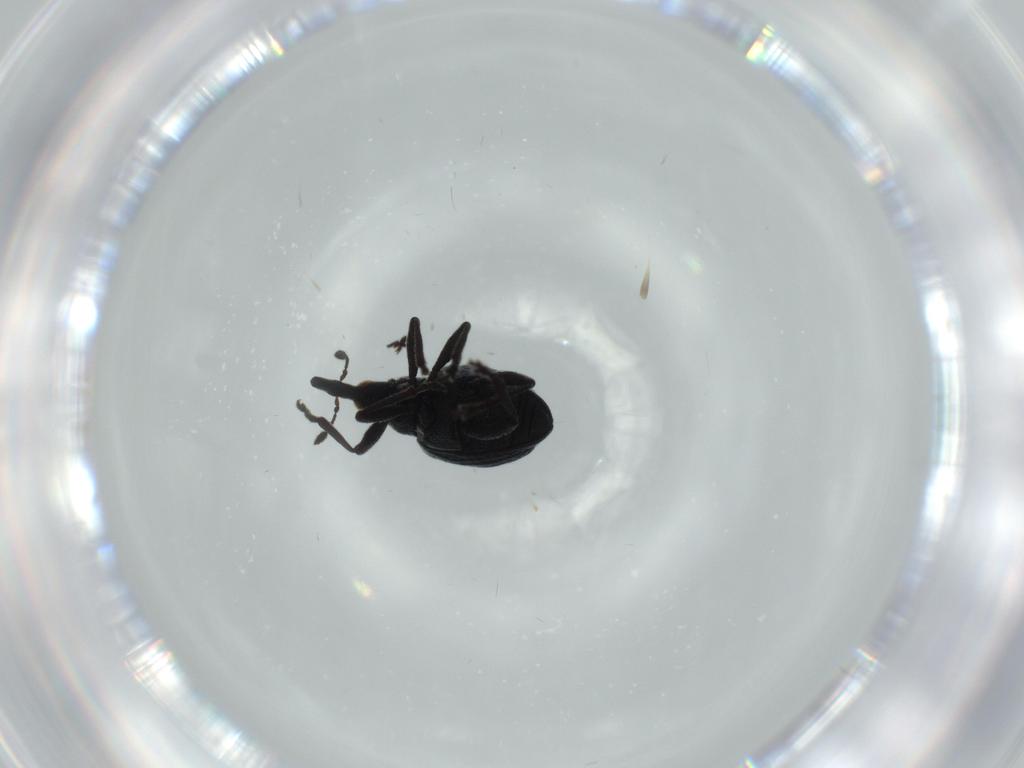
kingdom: Animalia
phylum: Arthropoda
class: Insecta
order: Coleoptera
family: Brentidae
